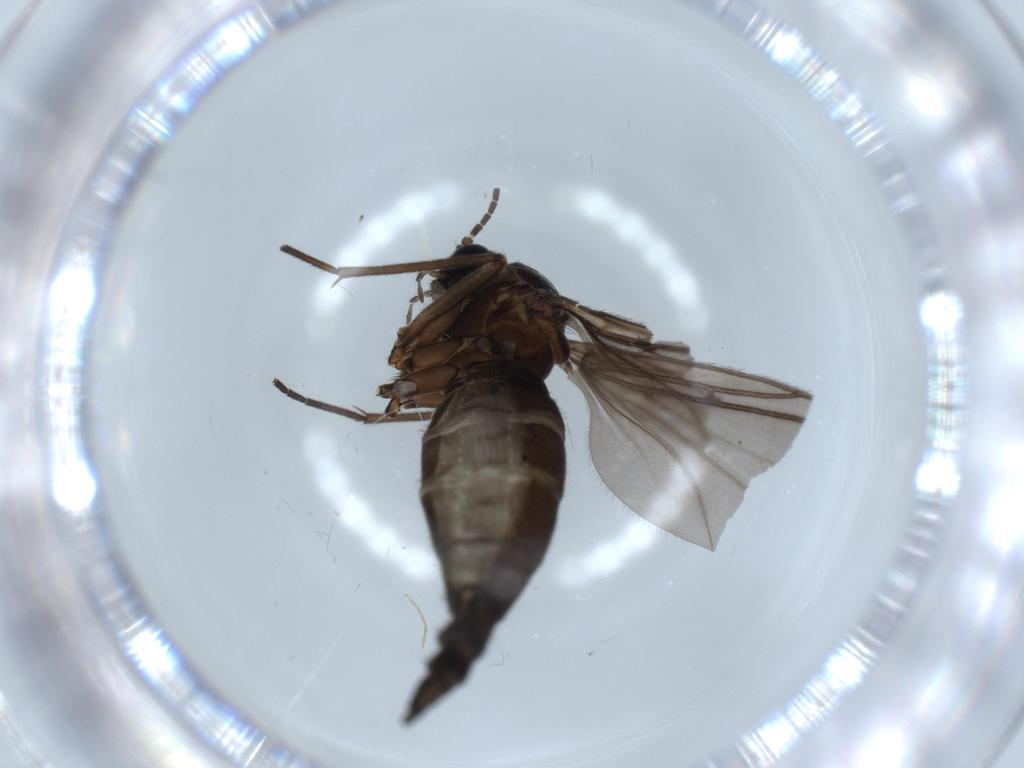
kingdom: Animalia
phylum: Arthropoda
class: Insecta
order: Diptera
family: Sciaridae
